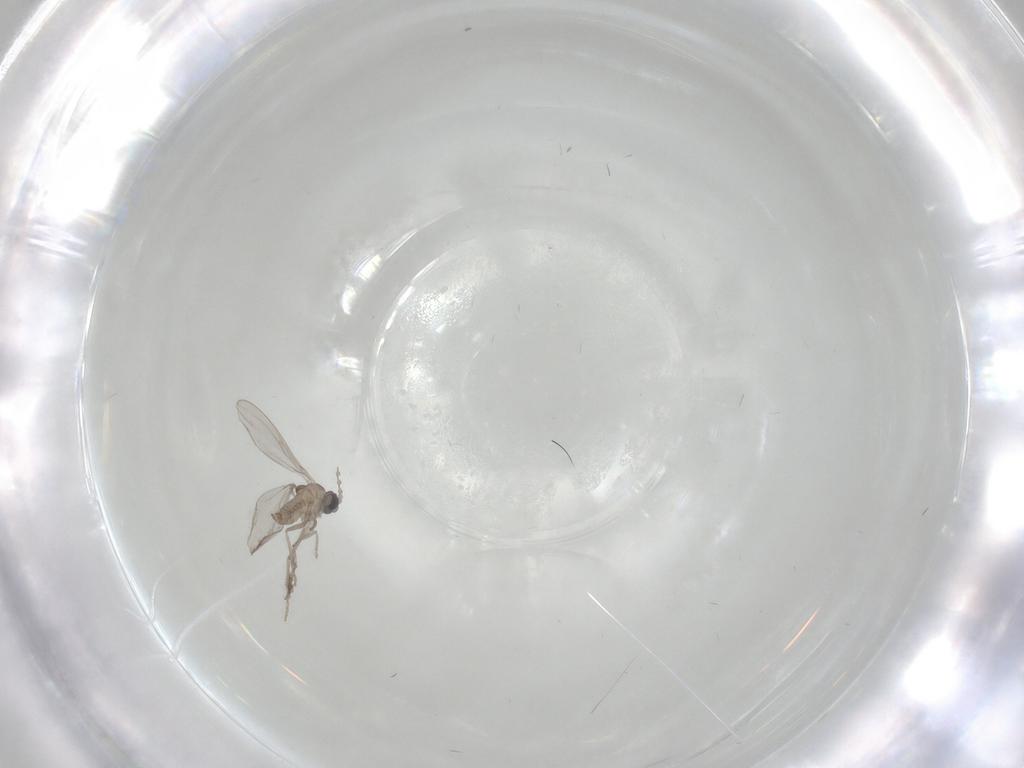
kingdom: Animalia
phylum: Arthropoda
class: Insecta
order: Diptera
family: Cecidomyiidae
